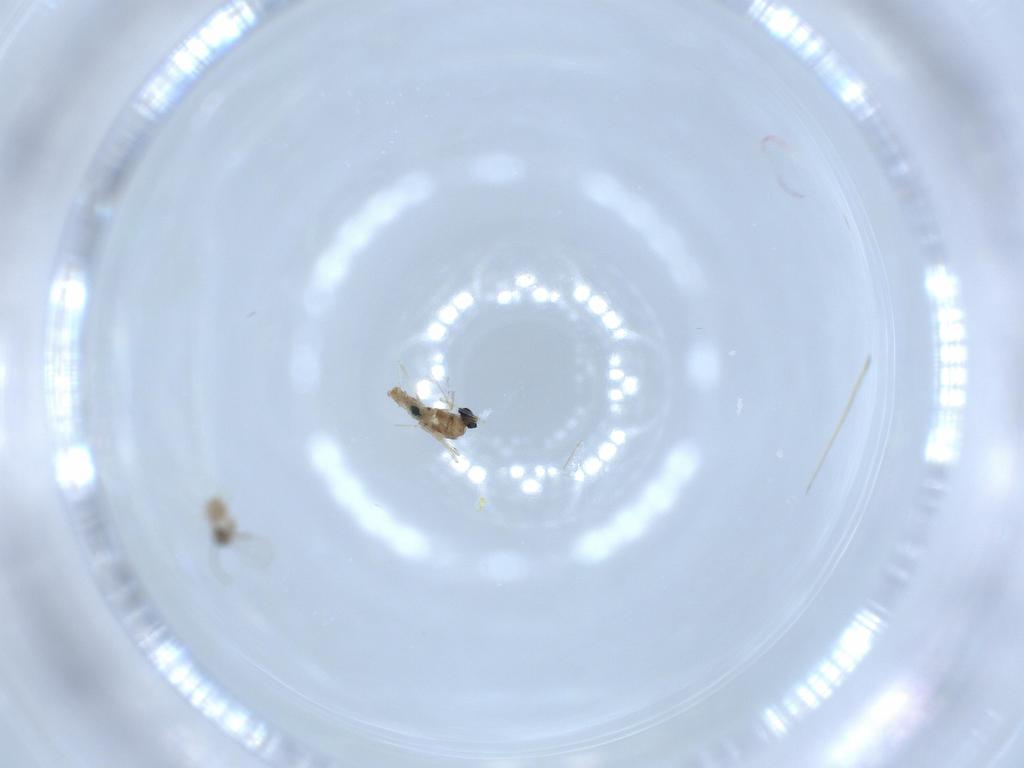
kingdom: Animalia
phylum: Arthropoda
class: Insecta
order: Diptera
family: Cecidomyiidae
